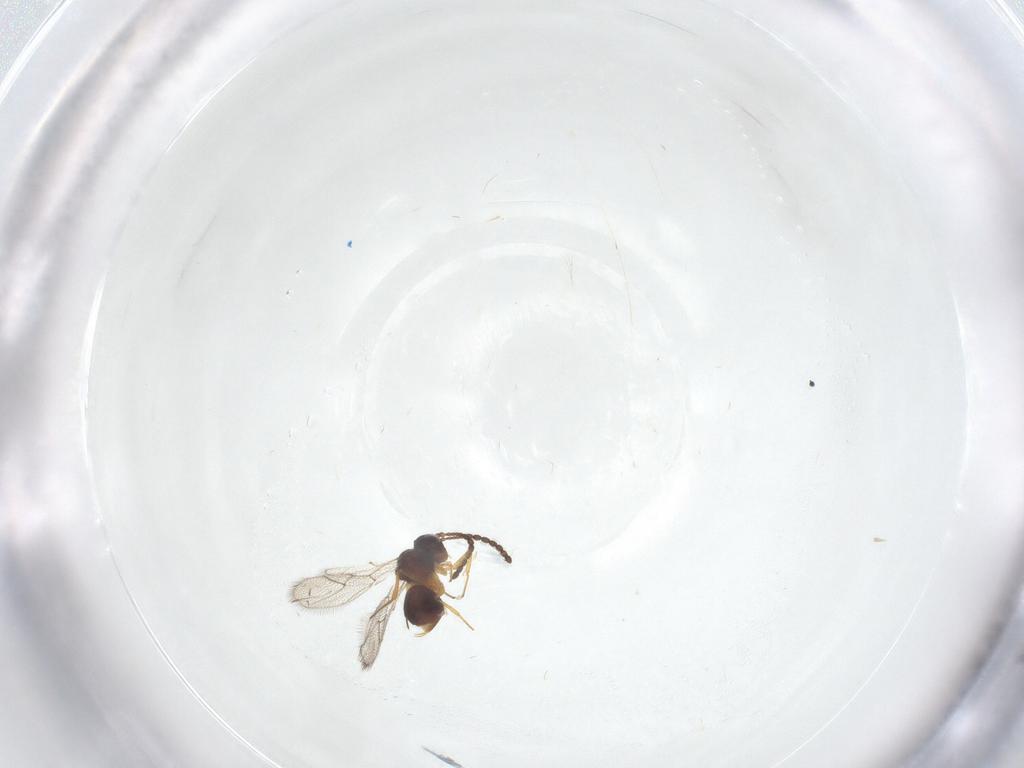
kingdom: Animalia
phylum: Arthropoda
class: Insecta
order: Hymenoptera
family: Figitidae
